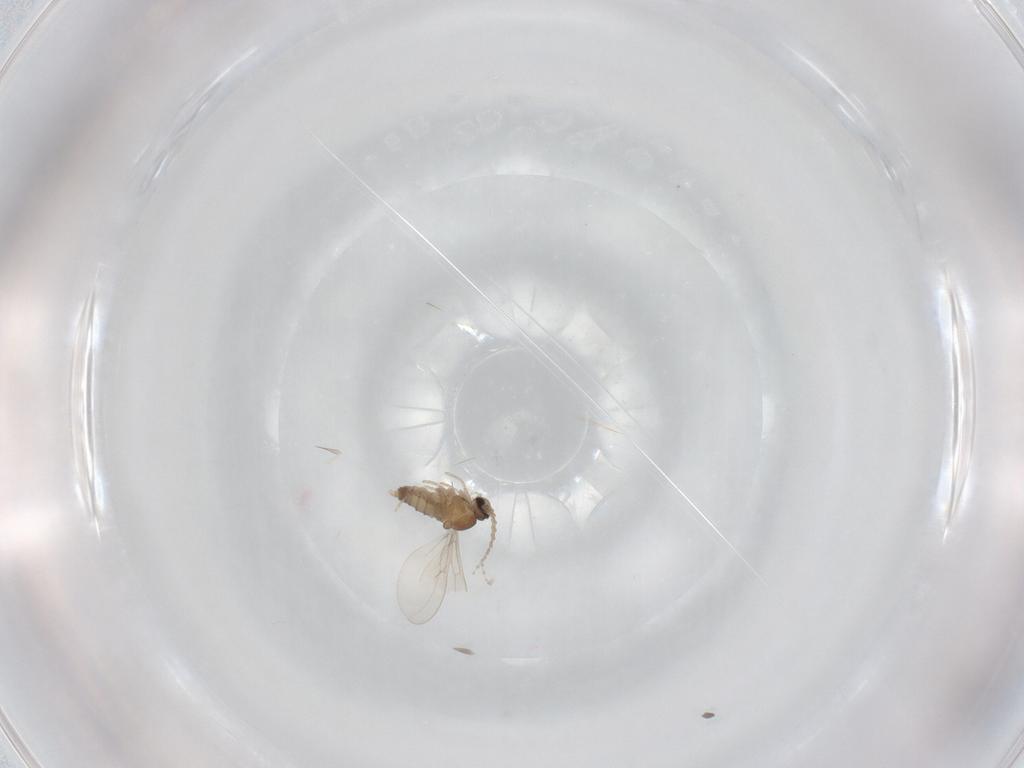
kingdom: Animalia
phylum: Arthropoda
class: Insecta
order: Diptera
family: Cecidomyiidae
